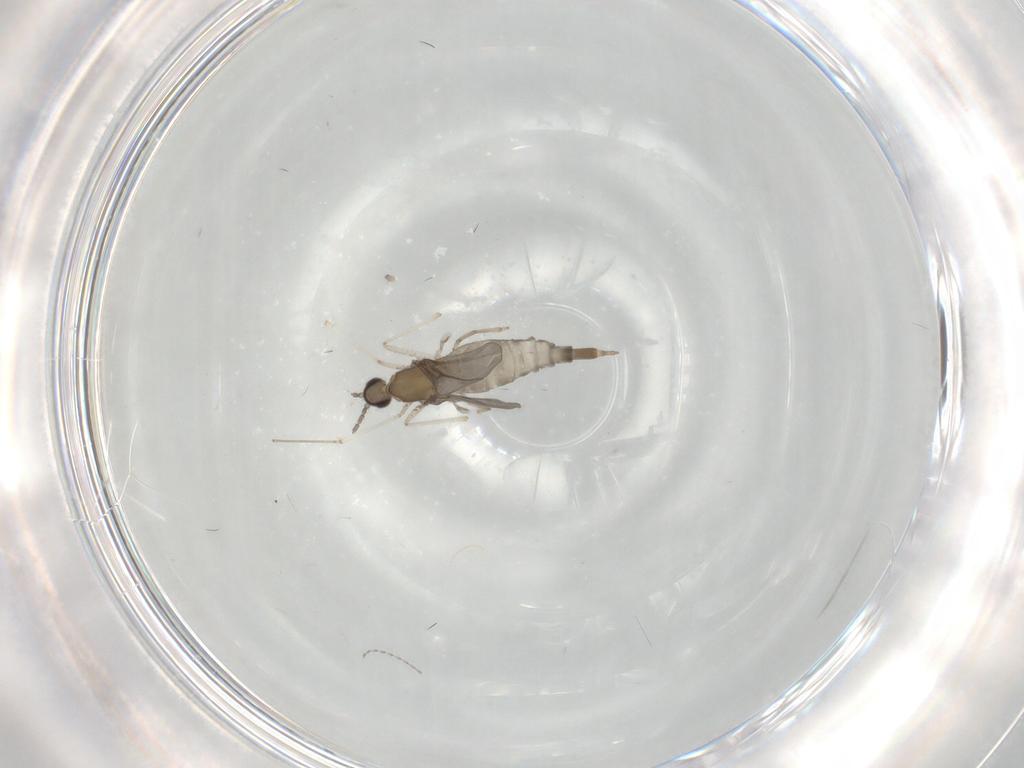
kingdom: Animalia
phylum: Arthropoda
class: Insecta
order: Diptera
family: Cecidomyiidae
